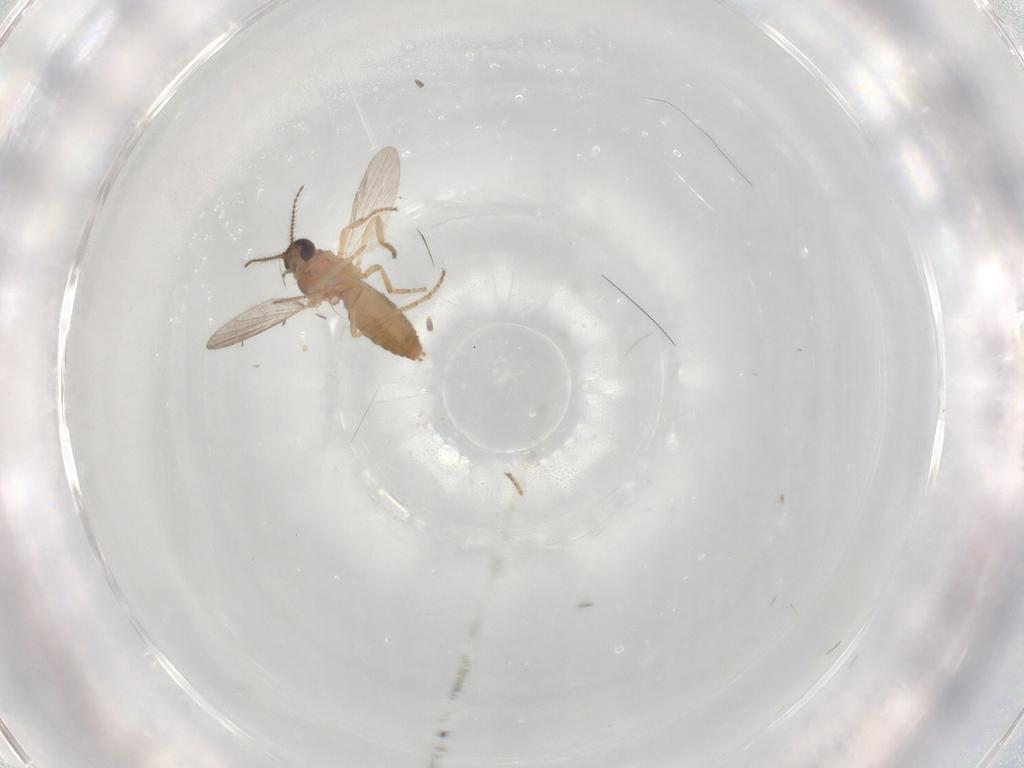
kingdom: Animalia
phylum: Arthropoda
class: Insecta
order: Diptera
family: Ceratopogonidae
